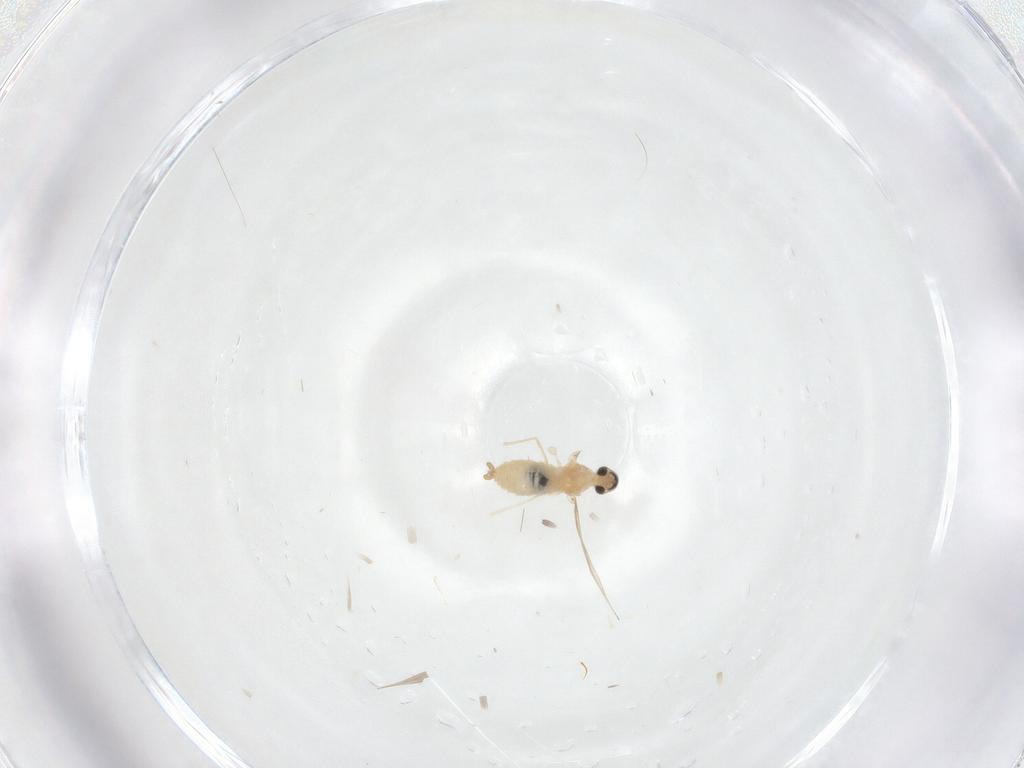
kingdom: Animalia
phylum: Arthropoda
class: Insecta
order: Diptera
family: Cecidomyiidae
